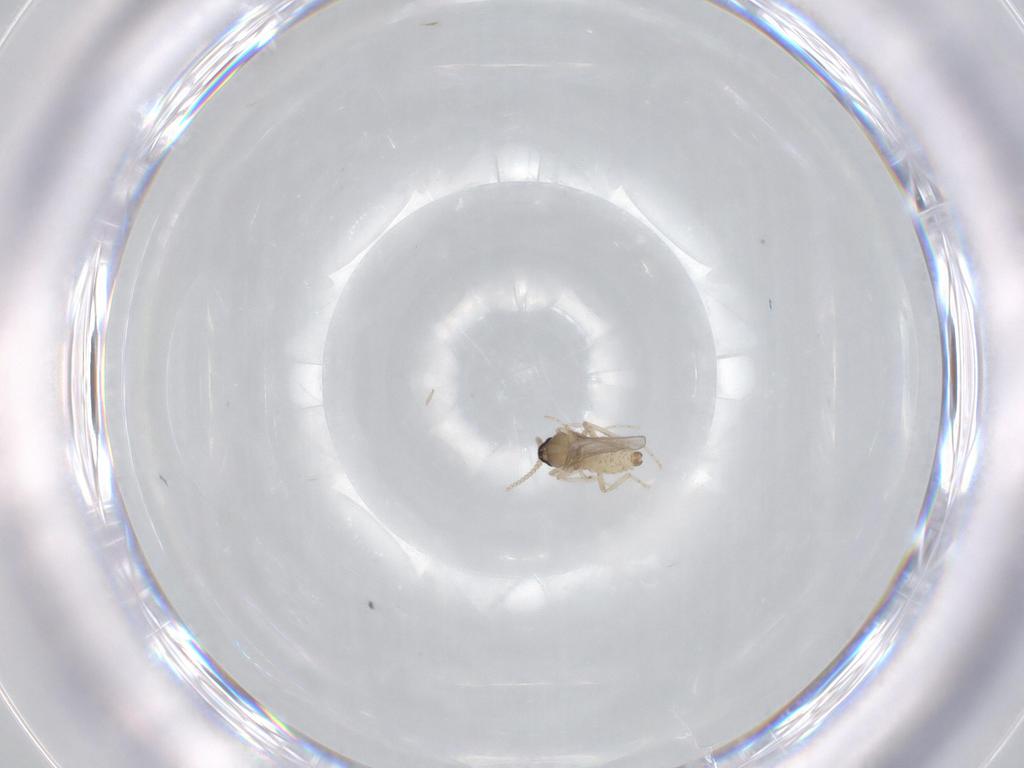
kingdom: Animalia
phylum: Arthropoda
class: Insecta
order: Diptera
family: Cecidomyiidae
